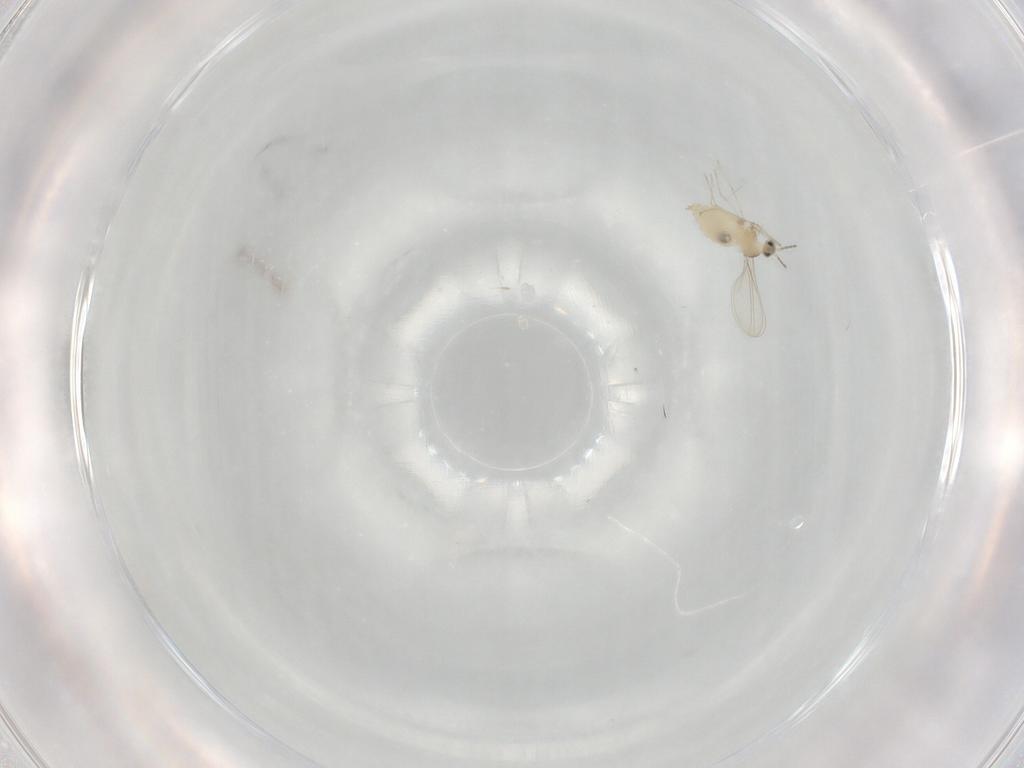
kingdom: Animalia
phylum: Arthropoda
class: Insecta
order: Diptera
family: Cecidomyiidae
